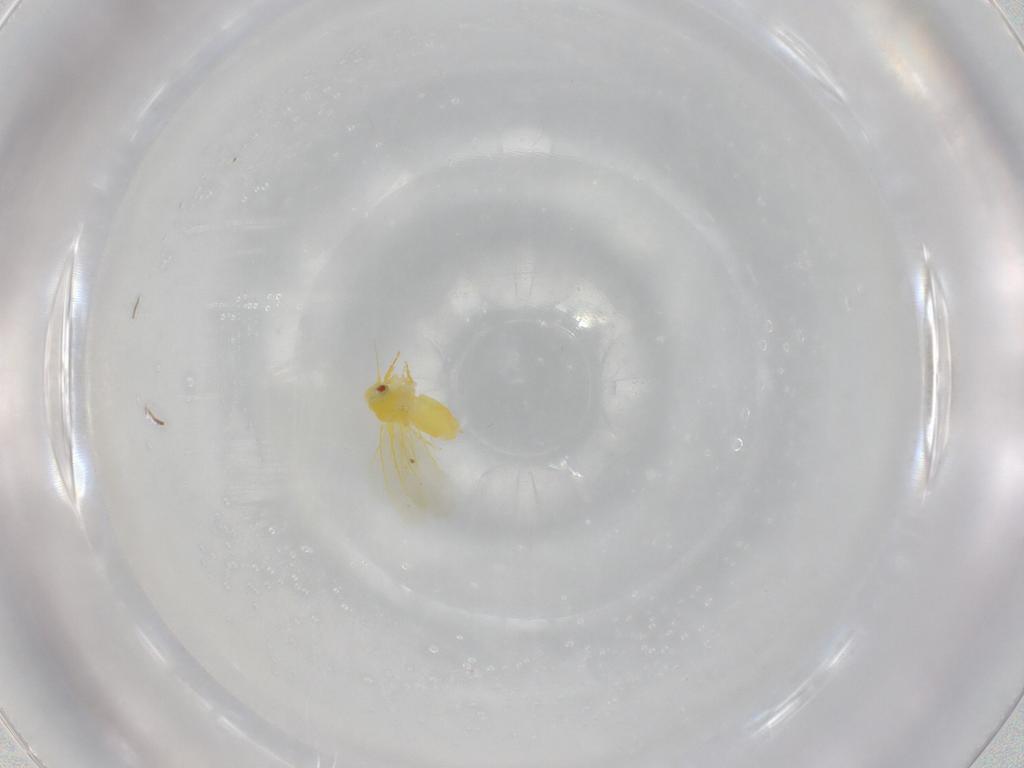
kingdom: Animalia
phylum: Arthropoda
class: Insecta
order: Hemiptera
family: Aleyrodidae
